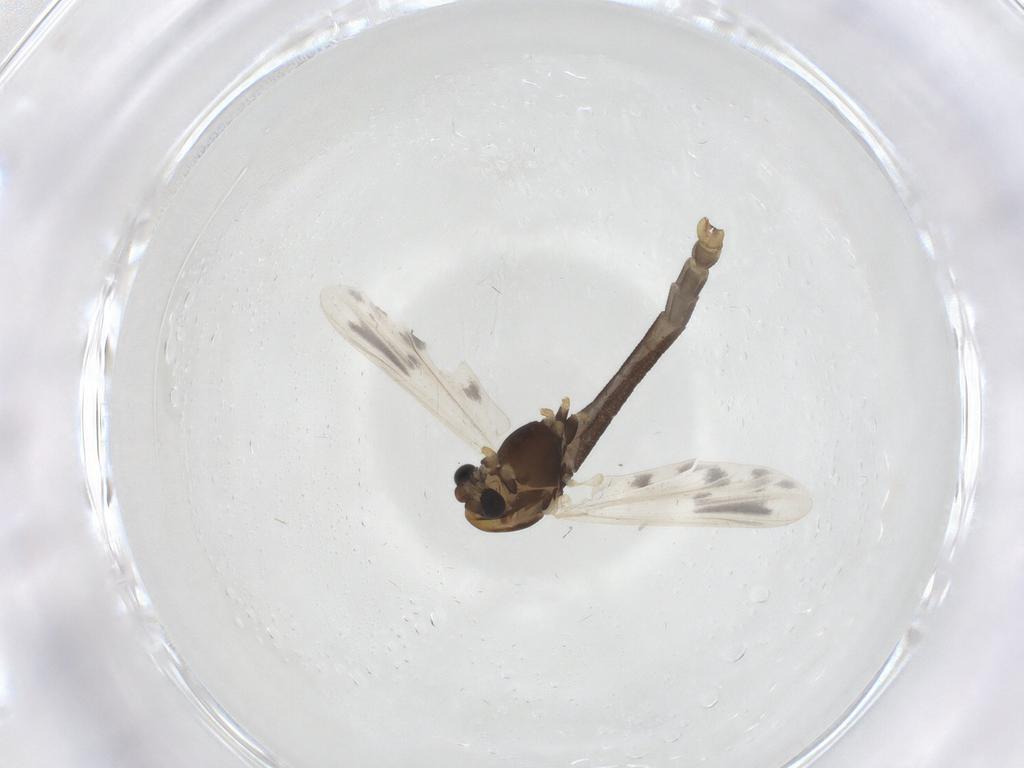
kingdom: Animalia
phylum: Arthropoda
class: Insecta
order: Diptera
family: Chironomidae
